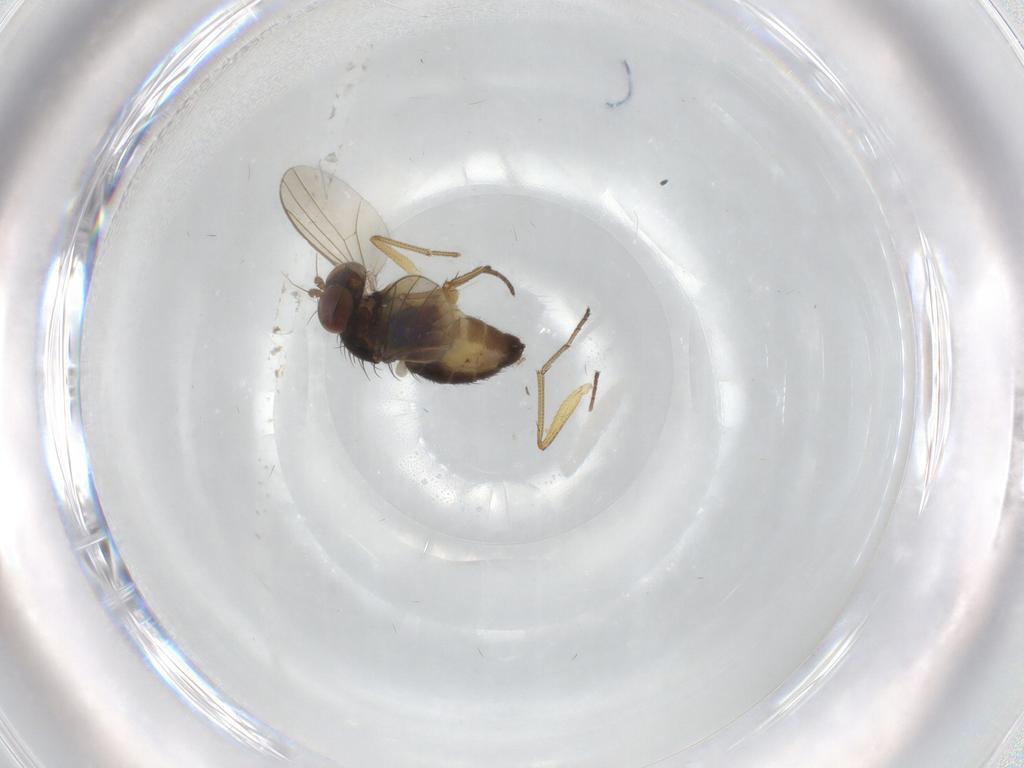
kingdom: Animalia
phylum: Arthropoda
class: Insecta
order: Diptera
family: Dolichopodidae
